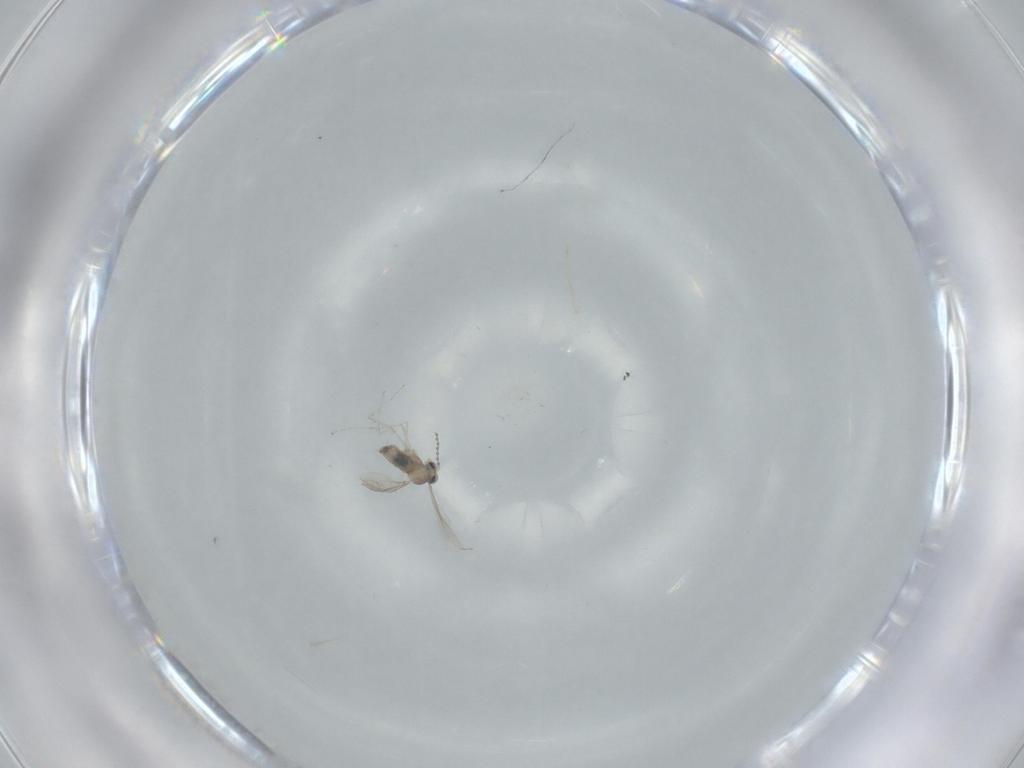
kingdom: Animalia
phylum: Arthropoda
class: Insecta
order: Diptera
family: Cecidomyiidae
